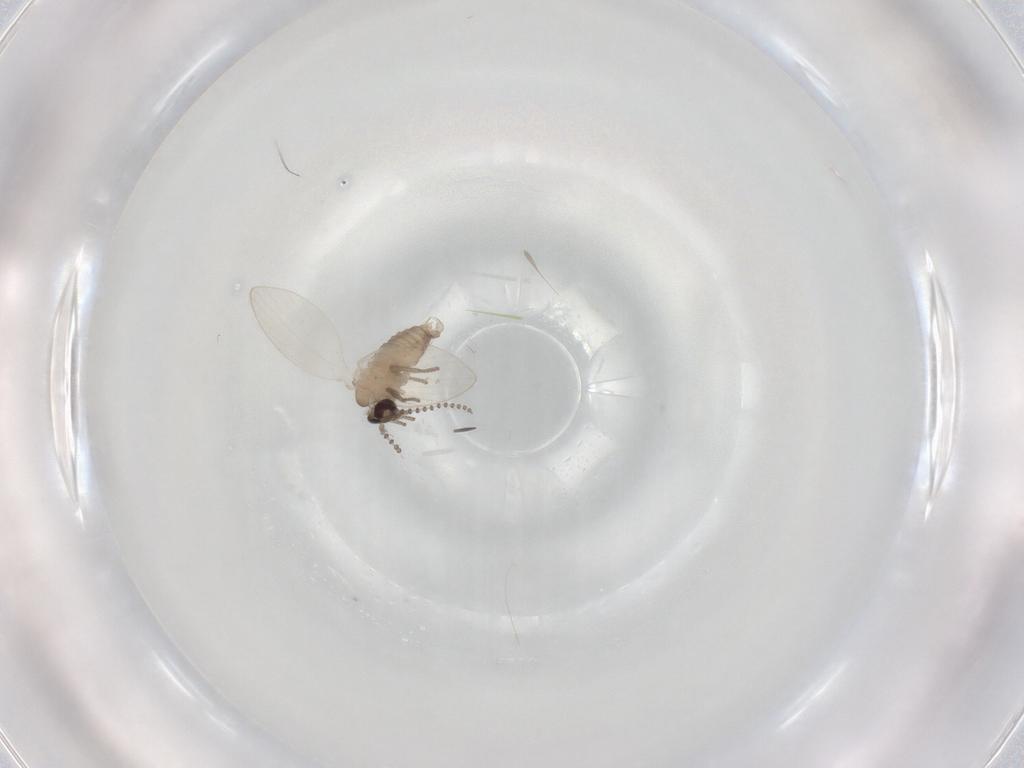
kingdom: Animalia
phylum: Arthropoda
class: Insecta
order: Diptera
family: Psychodidae
